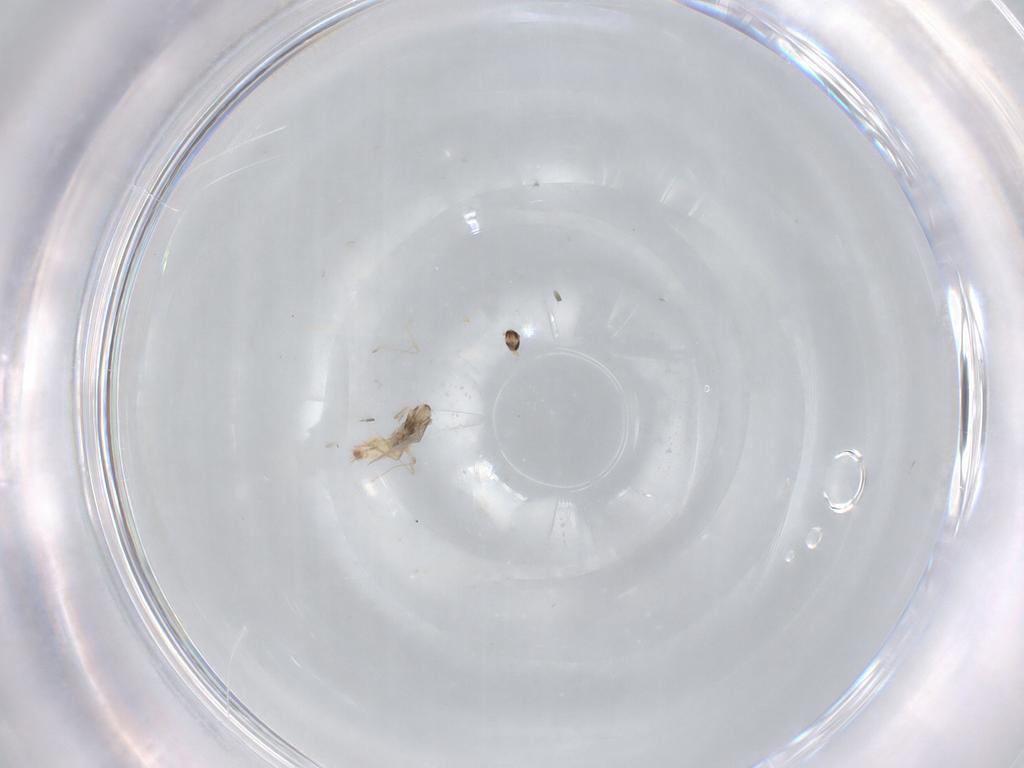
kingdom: Animalia
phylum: Arthropoda
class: Insecta
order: Diptera
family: Cecidomyiidae
